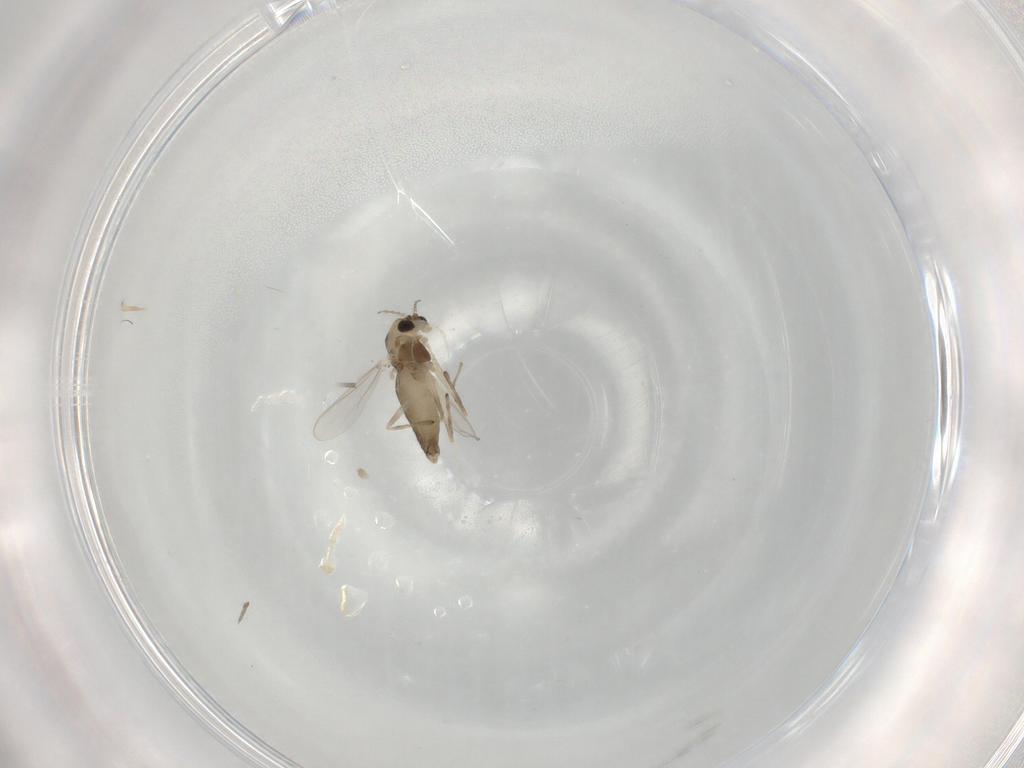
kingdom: Animalia
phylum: Arthropoda
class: Insecta
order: Diptera
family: Chironomidae
